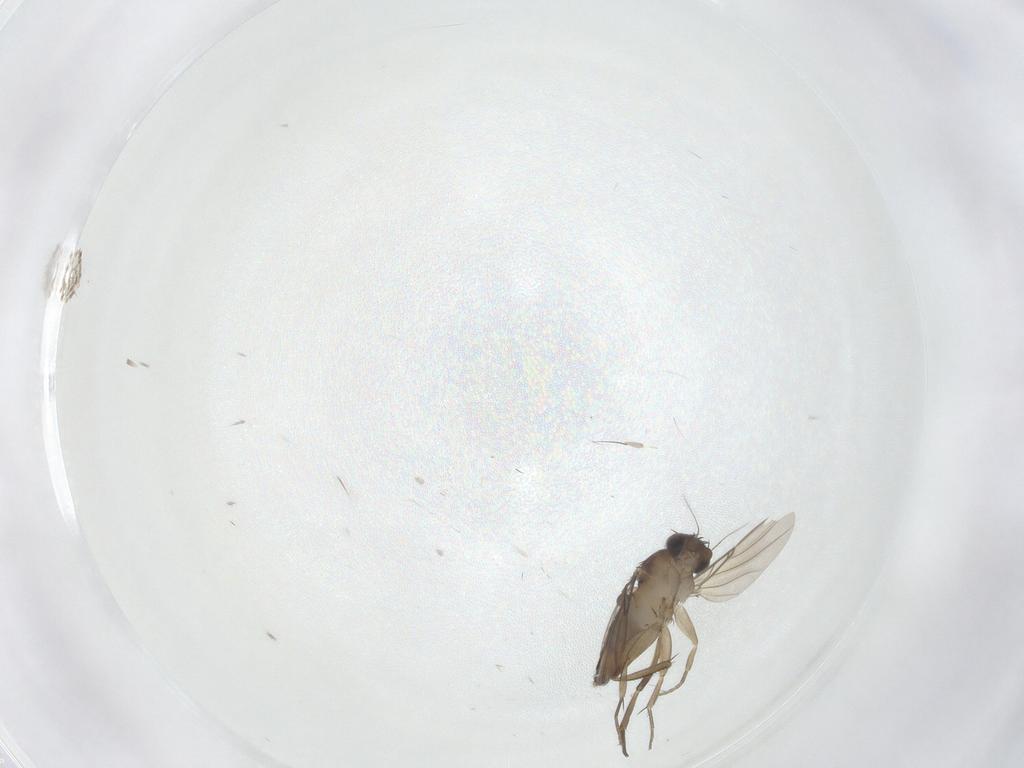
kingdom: Animalia
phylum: Arthropoda
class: Insecta
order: Diptera
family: Phoridae
